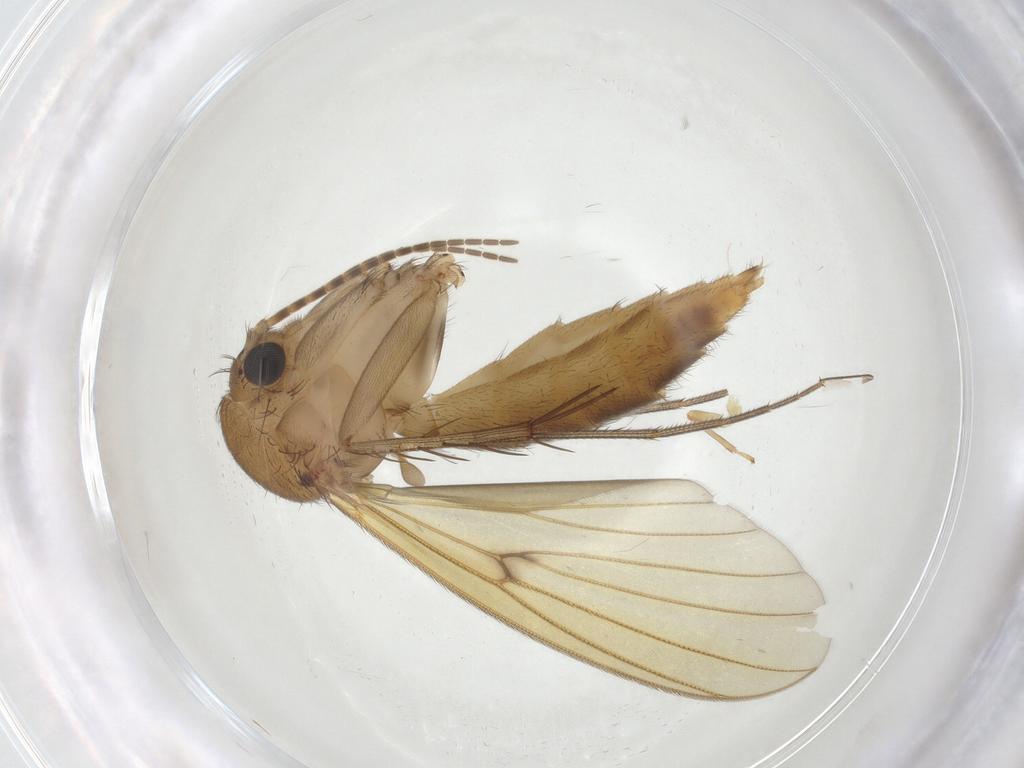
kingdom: Animalia
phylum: Arthropoda
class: Insecta
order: Diptera
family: Mycetophilidae
